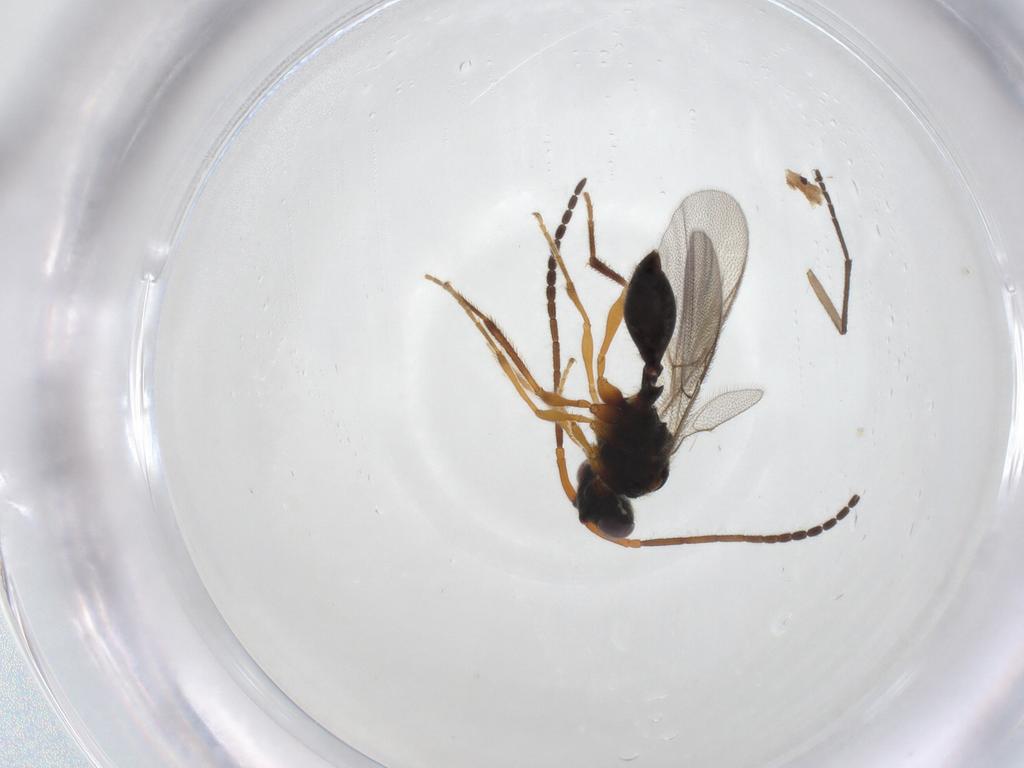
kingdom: Animalia
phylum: Arthropoda
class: Insecta
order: Hymenoptera
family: Diapriidae
